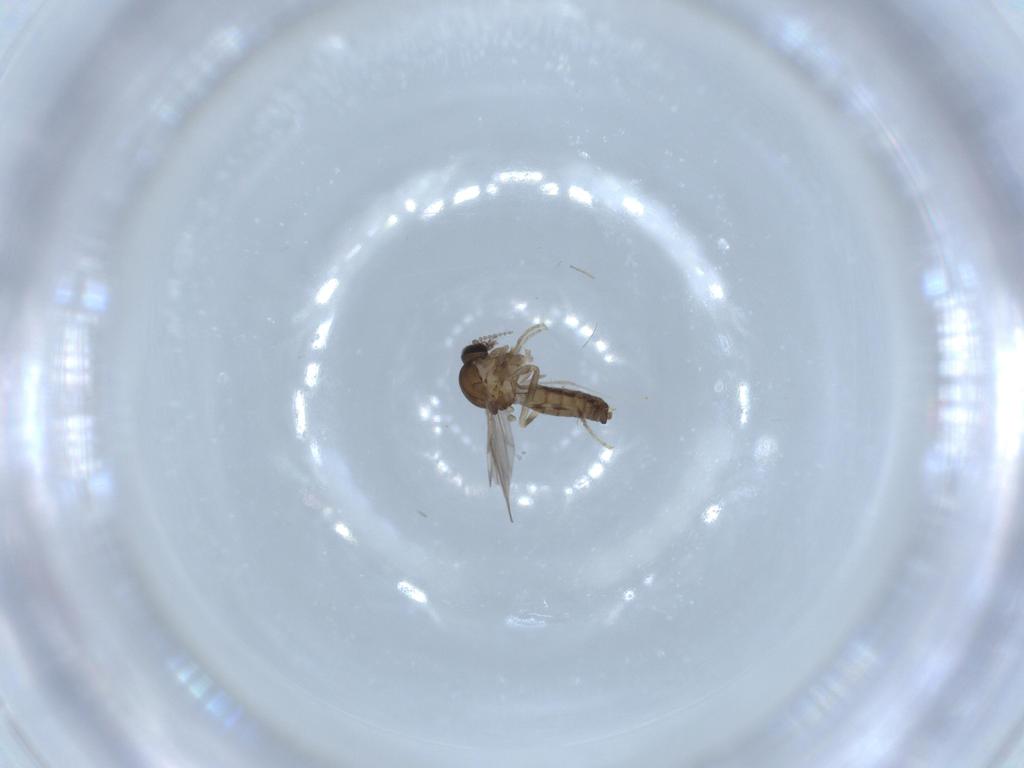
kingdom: Animalia
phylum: Arthropoda
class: Insecta
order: Diptera
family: Ceratopogonidae
